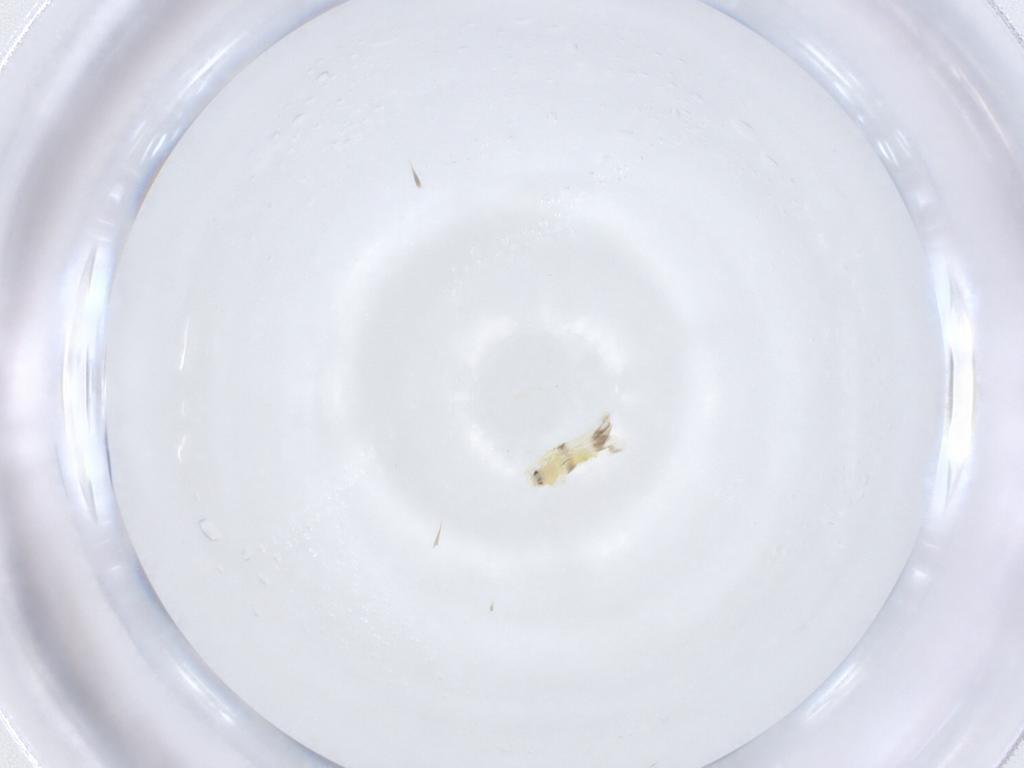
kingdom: Animalia
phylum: Arthropoda
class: Insecta
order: Hemiptera
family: Aleyrodidae
